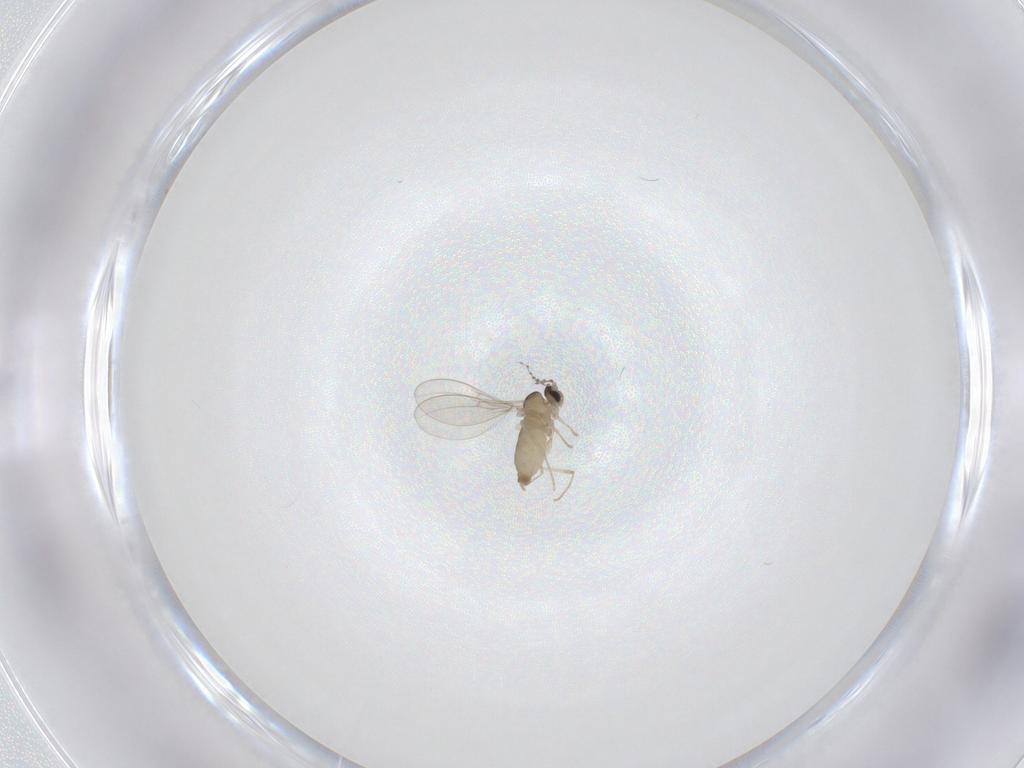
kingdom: Animalia
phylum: Arthropoda
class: Insecta
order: Diptera
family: Cecidomyiidae
